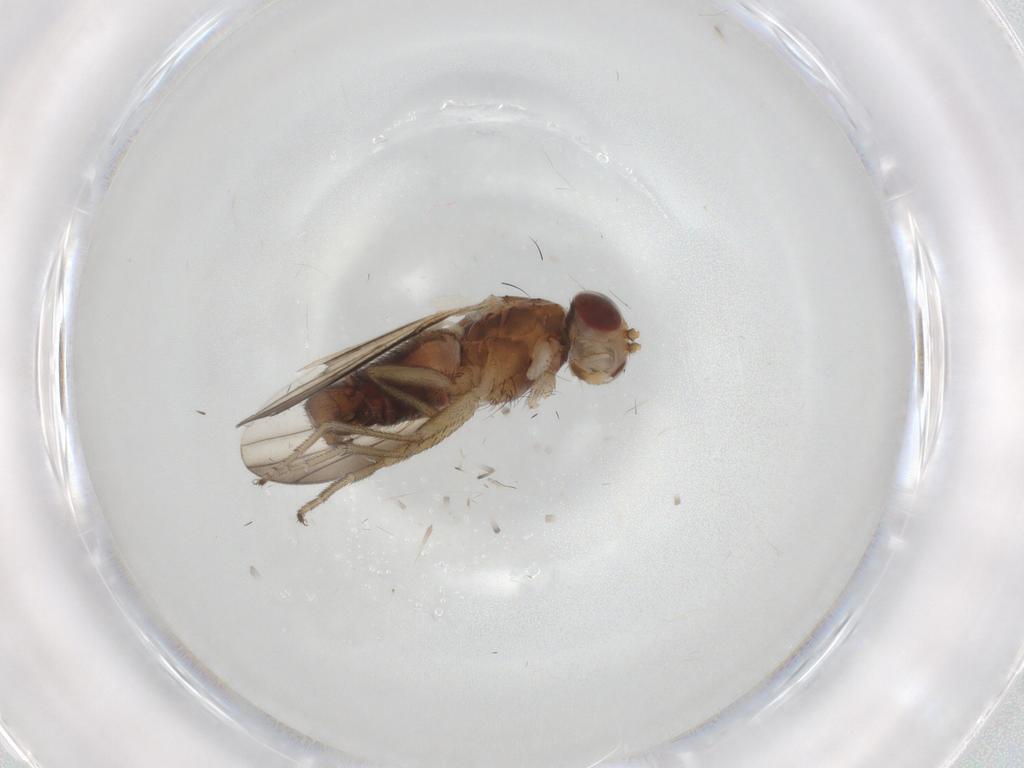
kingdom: Animalia
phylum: Arthropoda
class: Insecta
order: Diptera
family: Heleomyzidae
